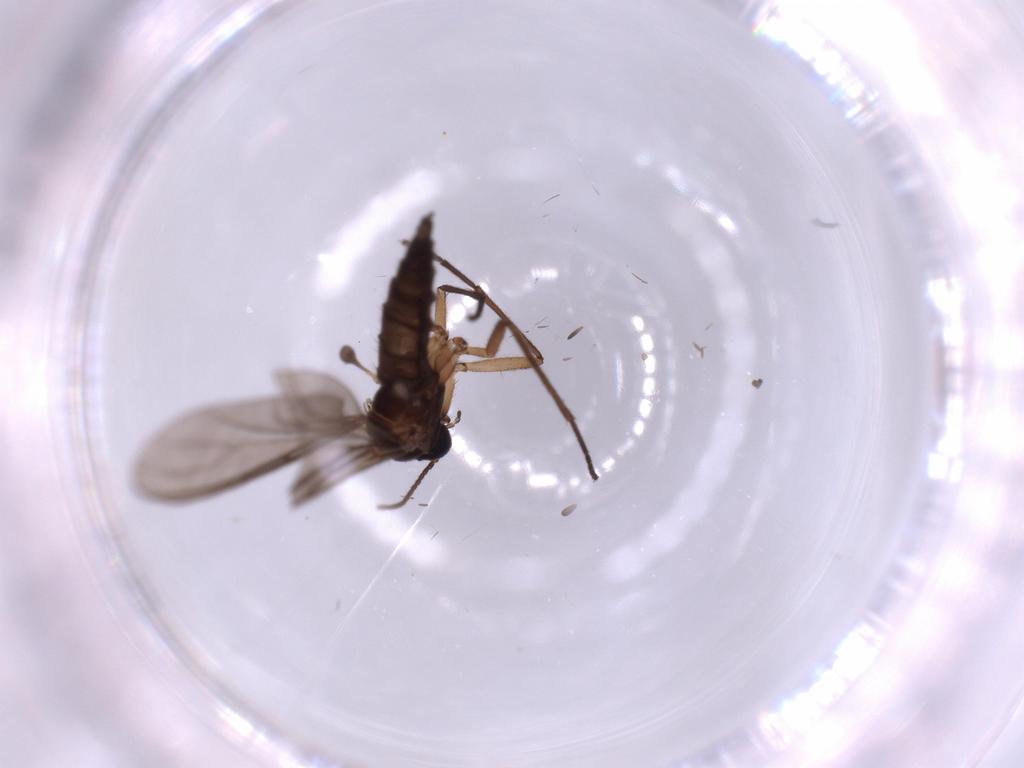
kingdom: Animalia
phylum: Arthropoda
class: Insecta
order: Diptera
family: Sciaridae
